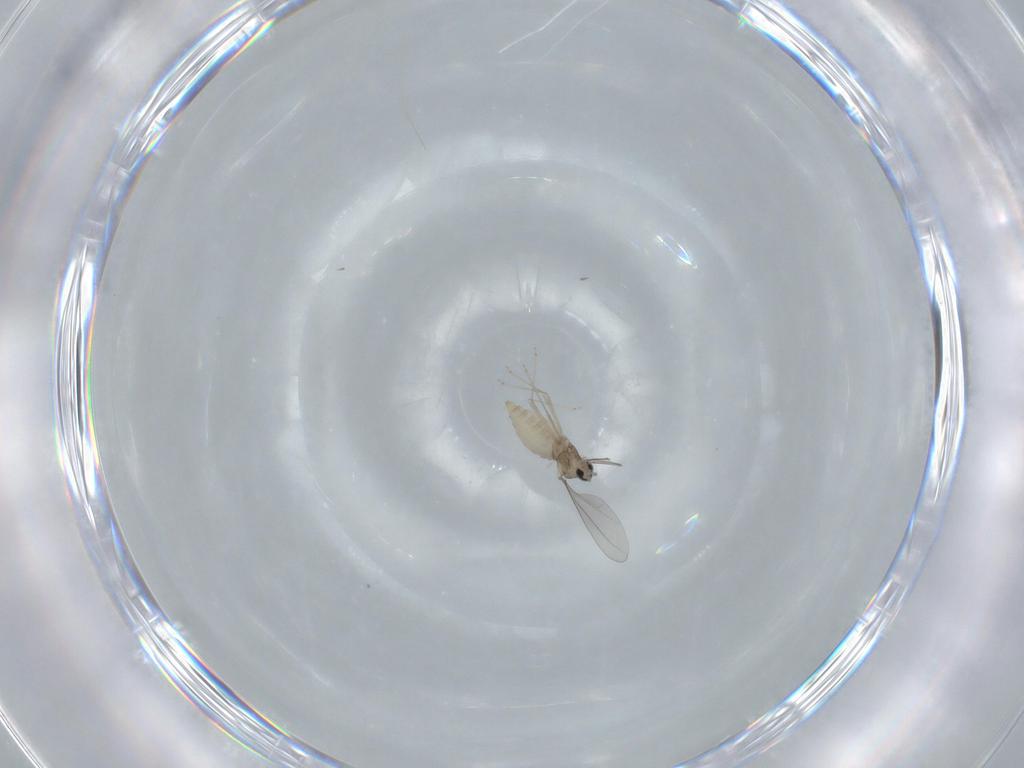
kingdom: Animalia
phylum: Arthropoda
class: Insecta
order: Diptera
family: Cecidomyiidae
